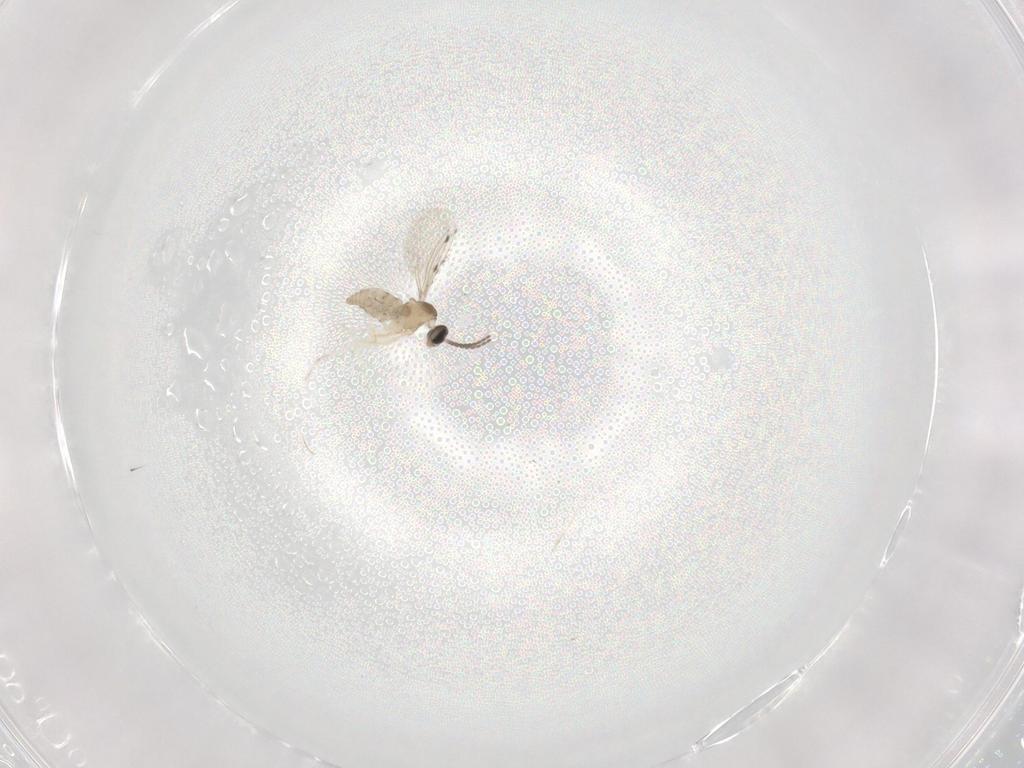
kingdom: Animalia
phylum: Arthropoda
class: Insecta
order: Diptera
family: Cecidomyiidae
